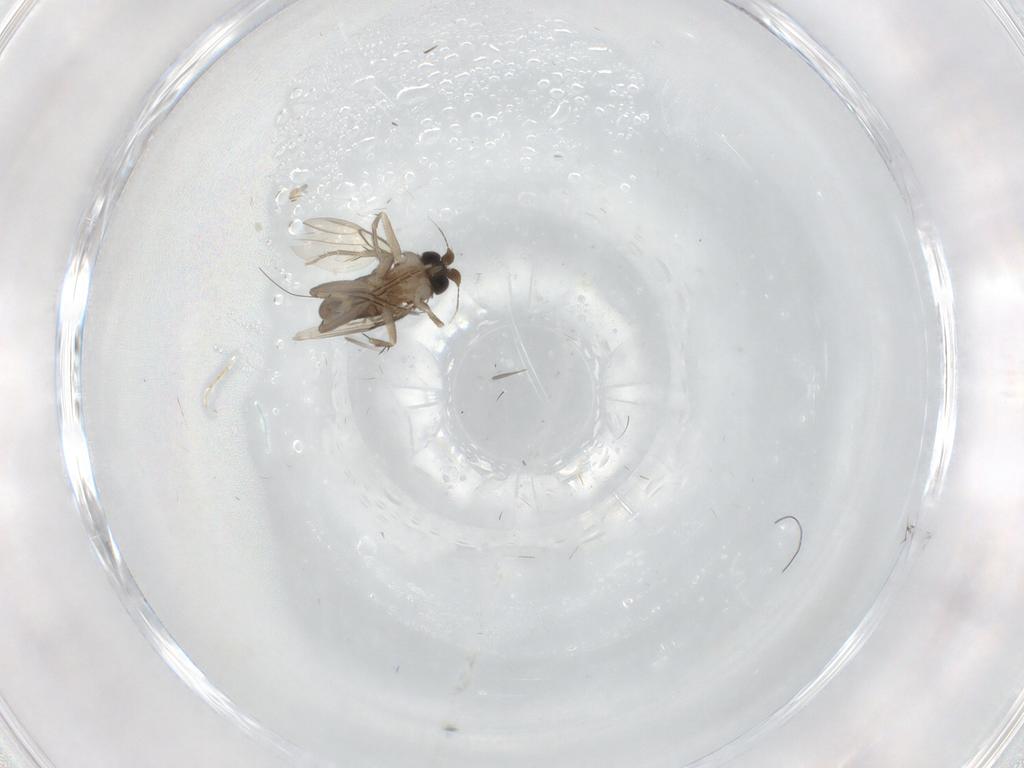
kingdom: Animalia
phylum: Arthropoda
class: Insecta
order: Diptera
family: Phoridae
